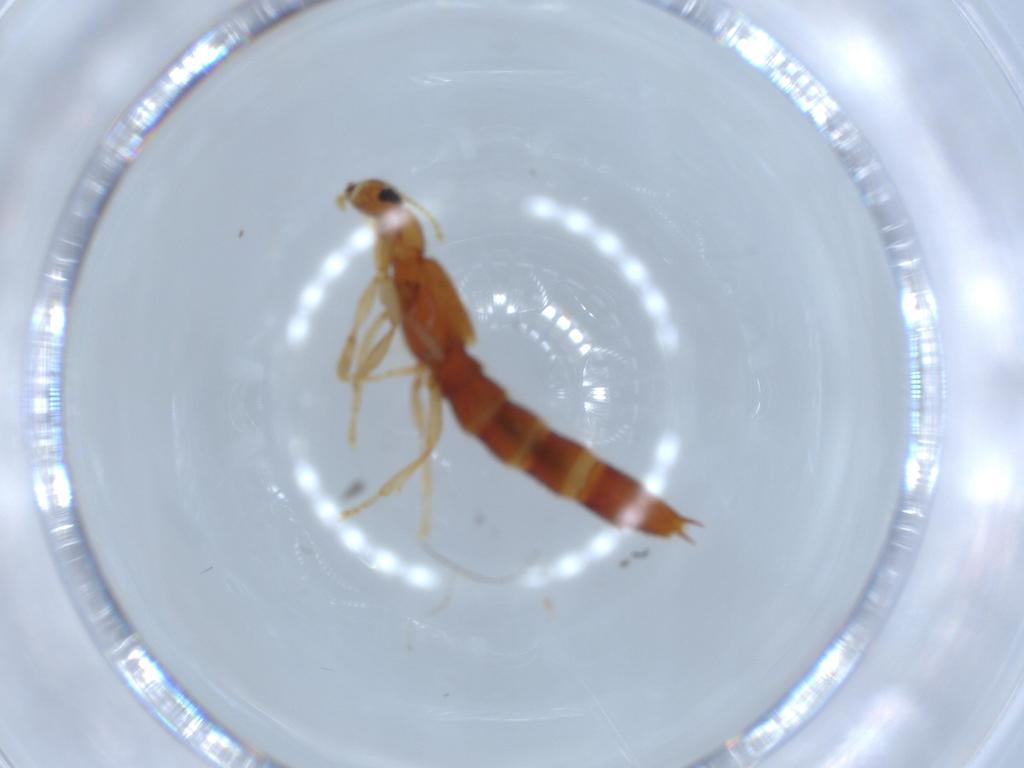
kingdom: Animalia
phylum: Arthropoda
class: Insecta
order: Coleoptera
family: Staphylinidae
